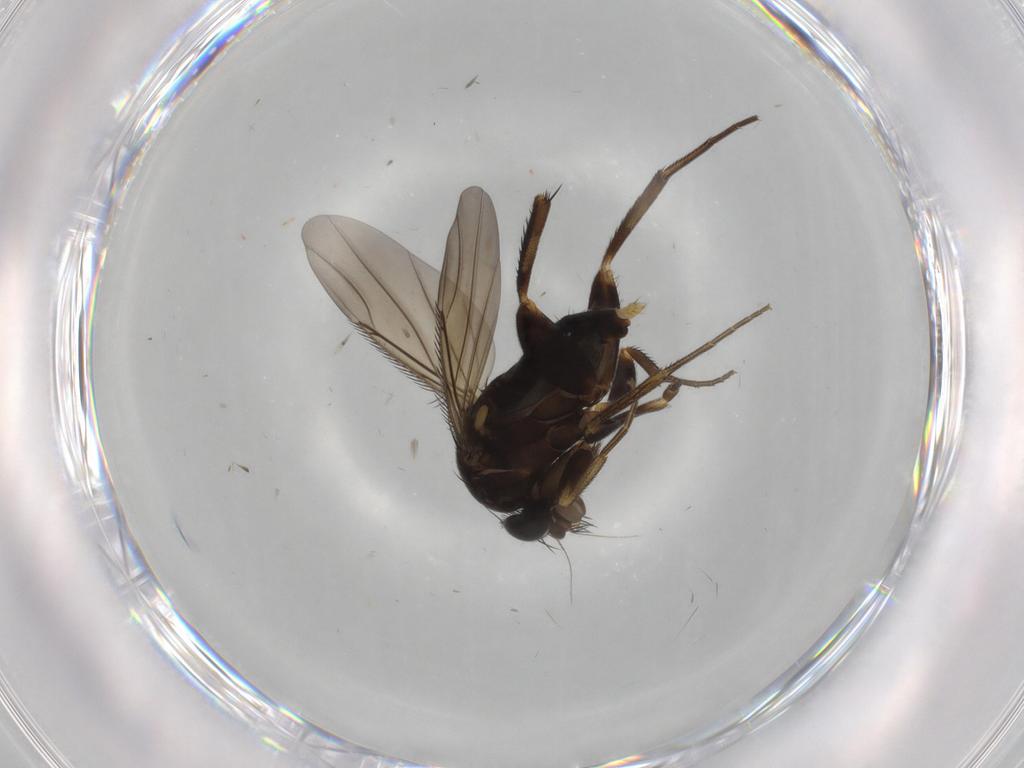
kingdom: Animalia
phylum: Arthropoda
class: Insecta
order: Diptera
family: Phoridae
